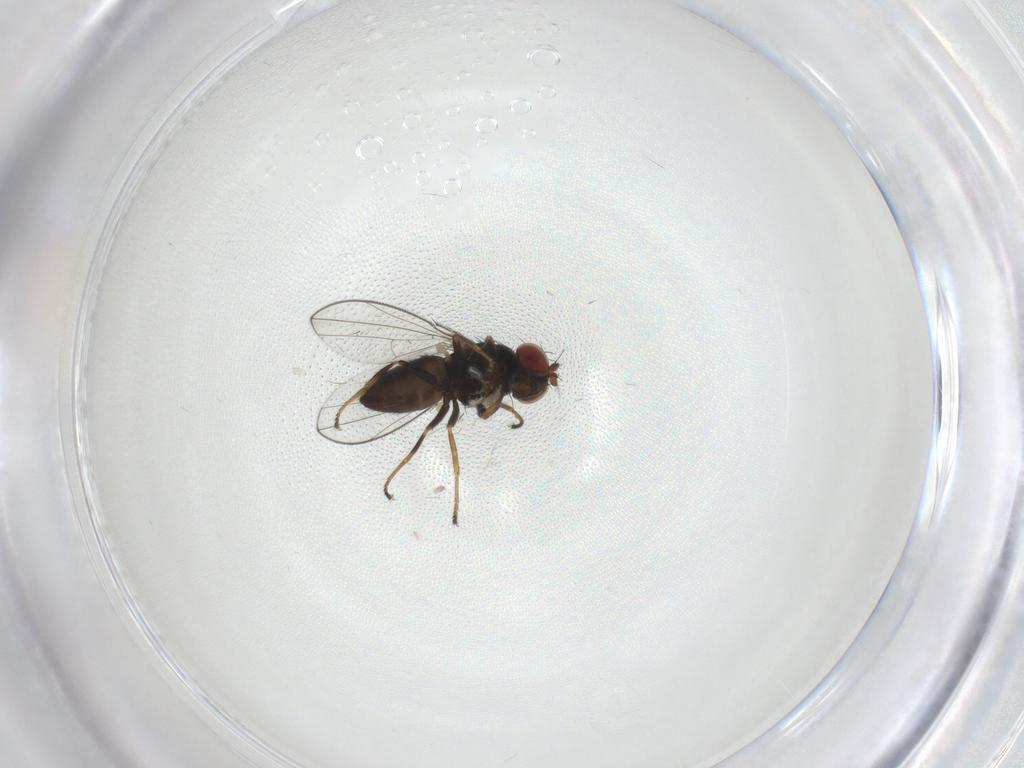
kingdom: Animalia
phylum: Arthropoda
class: Insecta
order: Diptera
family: Ephydridae
